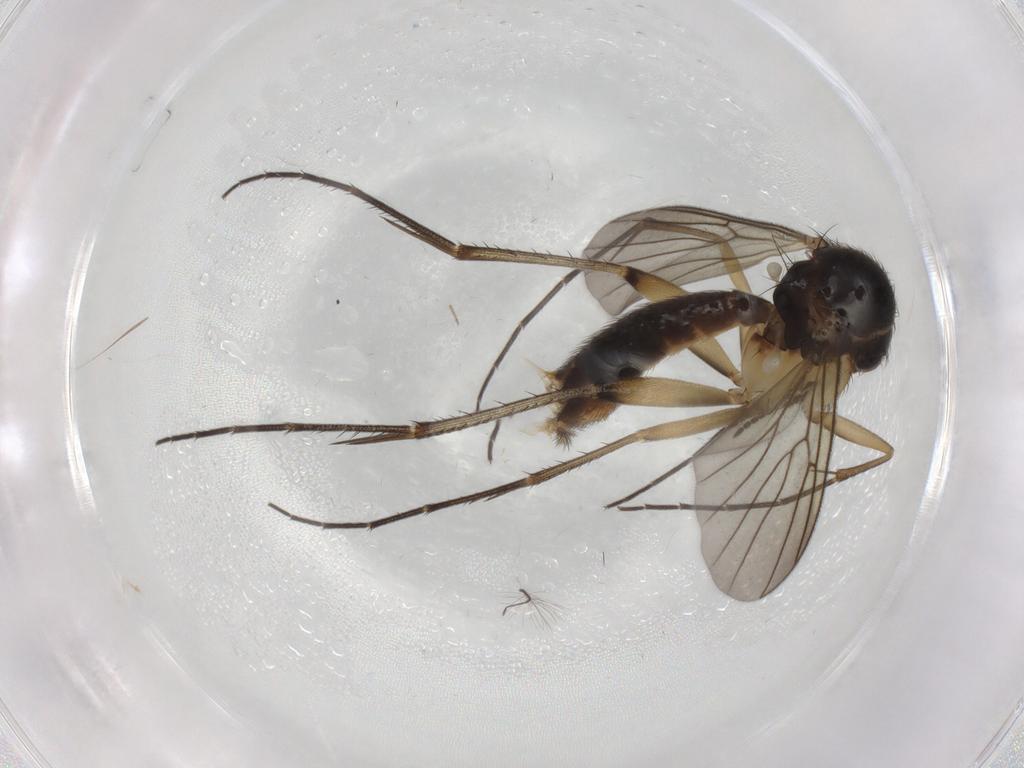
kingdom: Animalia
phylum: Arthropoda
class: Insecta
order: Diptera
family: Mycetophilidae
